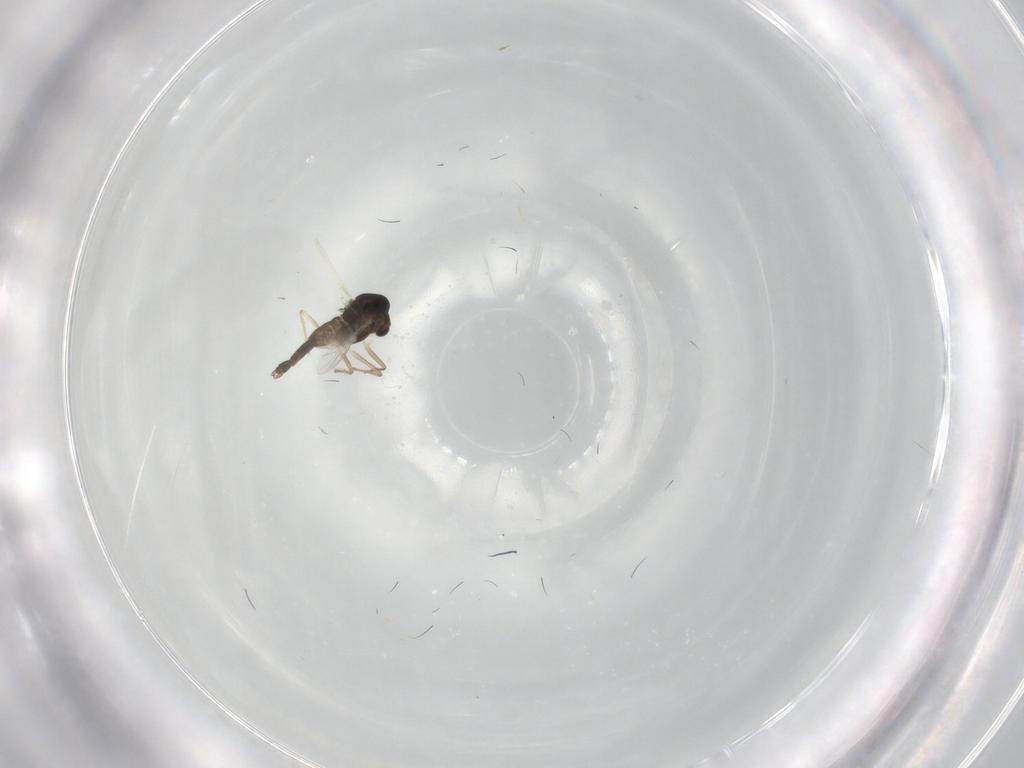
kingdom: Animalia
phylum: Arthropoda
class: Insecta
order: Diptera
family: Chironomidae
